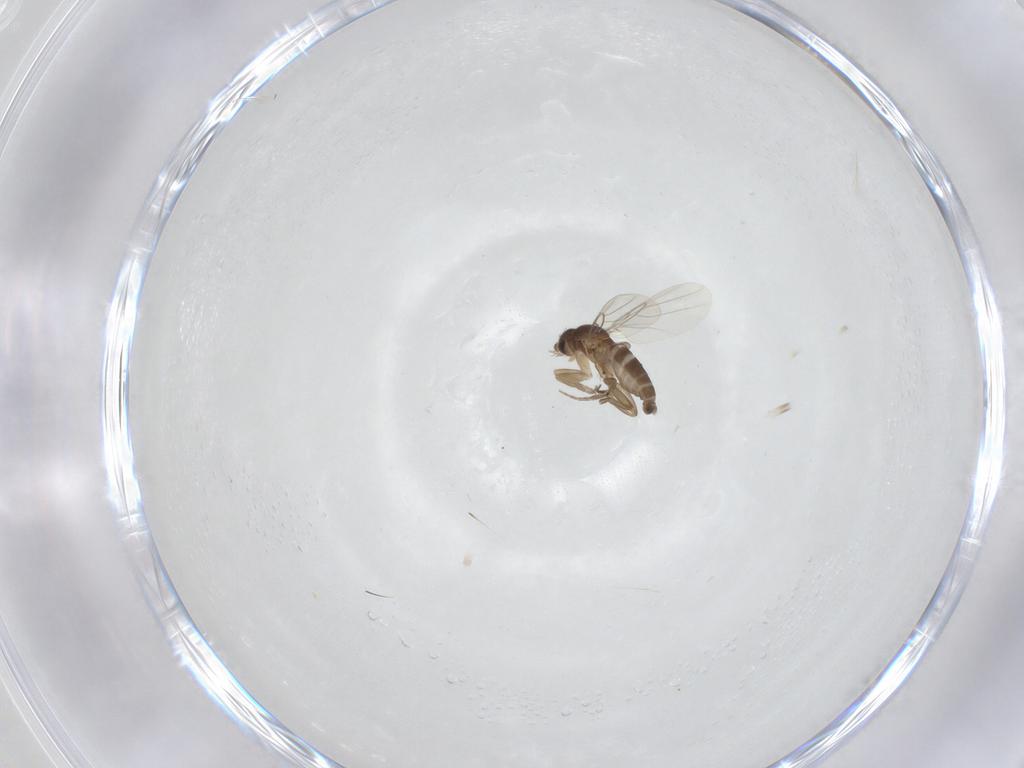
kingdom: Animalia
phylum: Arthropoda
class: Insecta
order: Diptera
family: Phoridae
